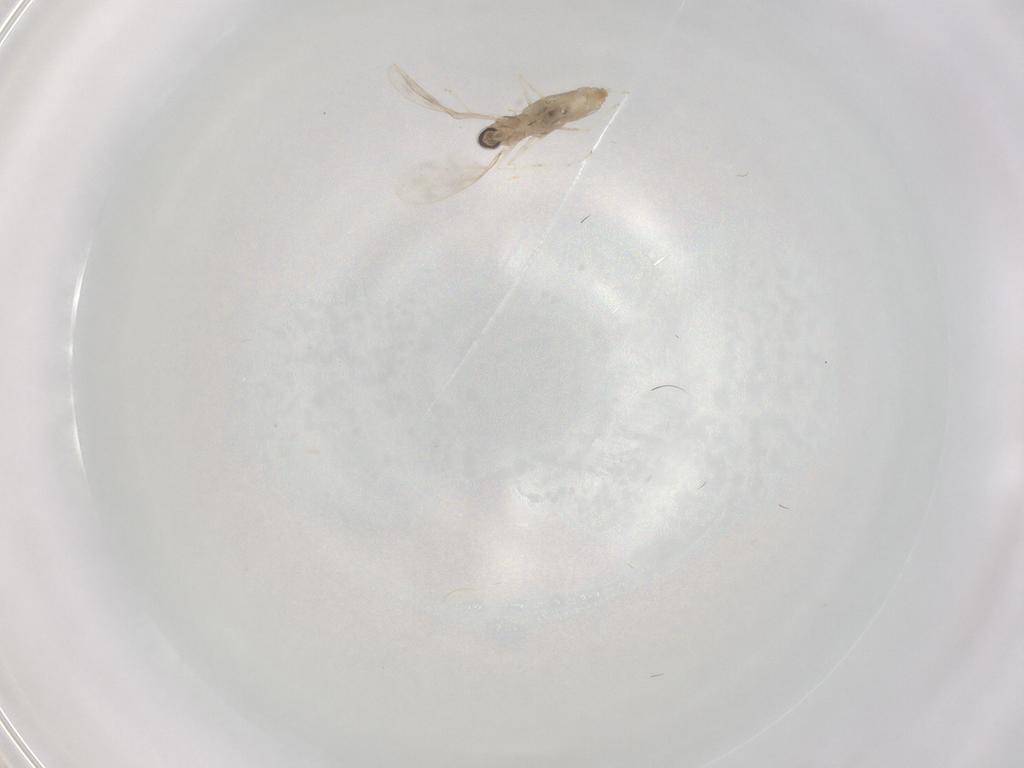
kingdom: Animalia
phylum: Arthropoda
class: Insecta
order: Diptera
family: Cecidomyiidae
